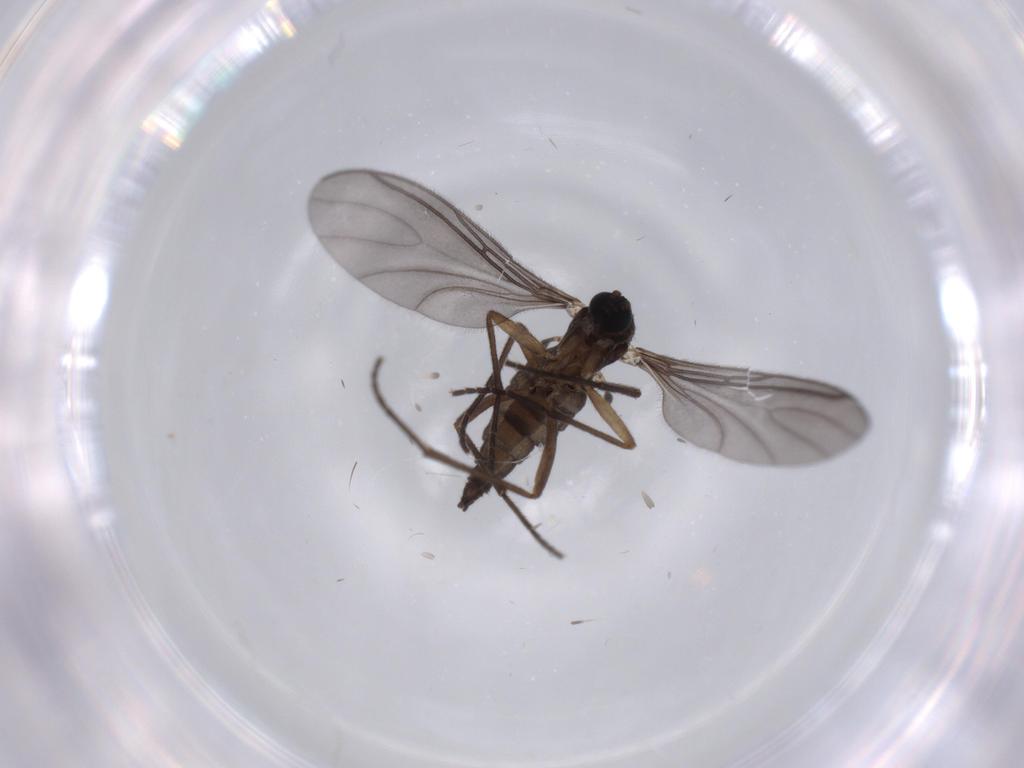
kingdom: Animalia
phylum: Arthropoda
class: Insecta
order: Diptera
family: Sciaridae
